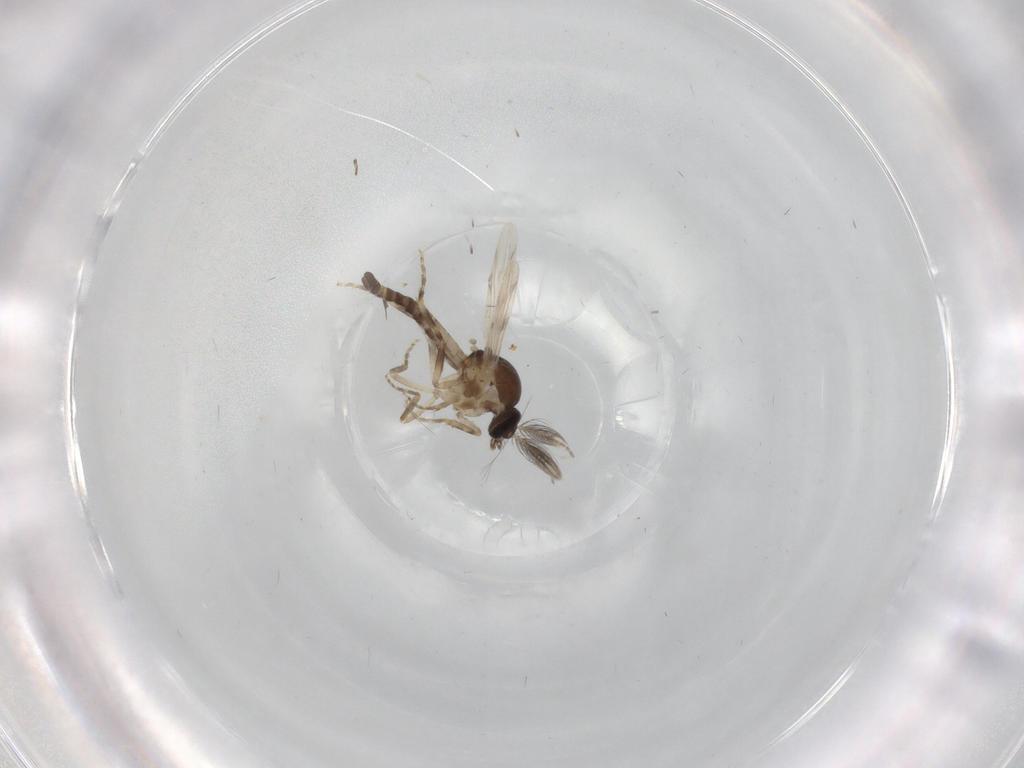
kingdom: Animalia
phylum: Arthropoda
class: Insecta
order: Diptera
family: Ceratopogonidae
